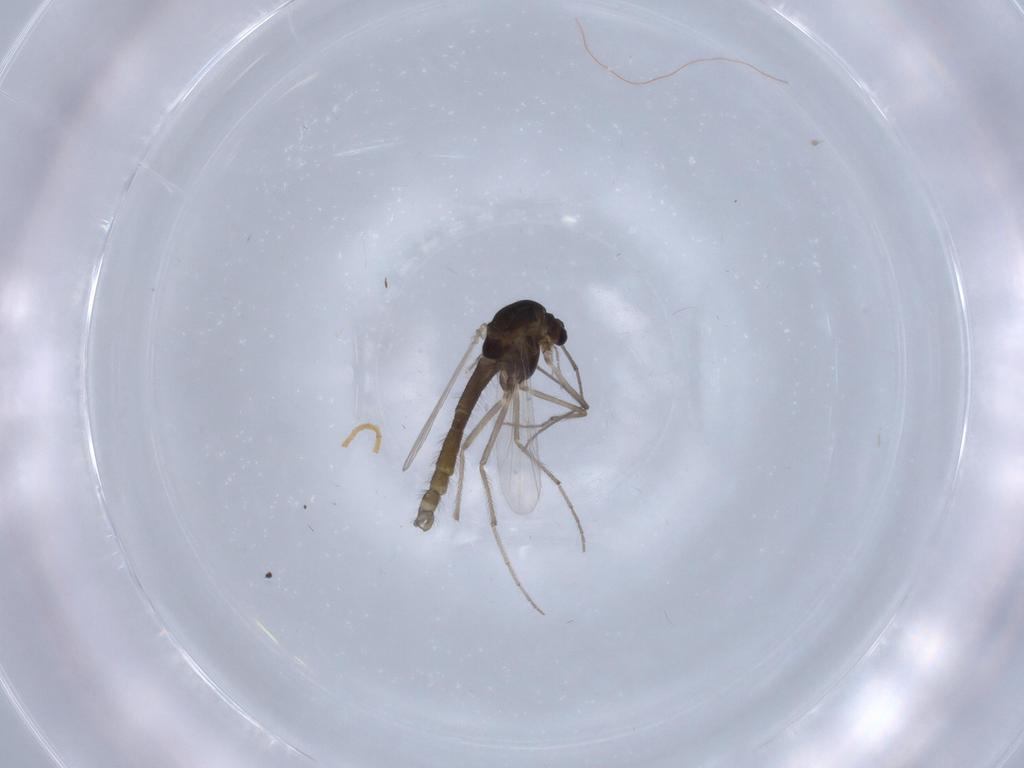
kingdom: Animalia
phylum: Arthropoda
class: Insecta
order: Diptera
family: Chironomidae
